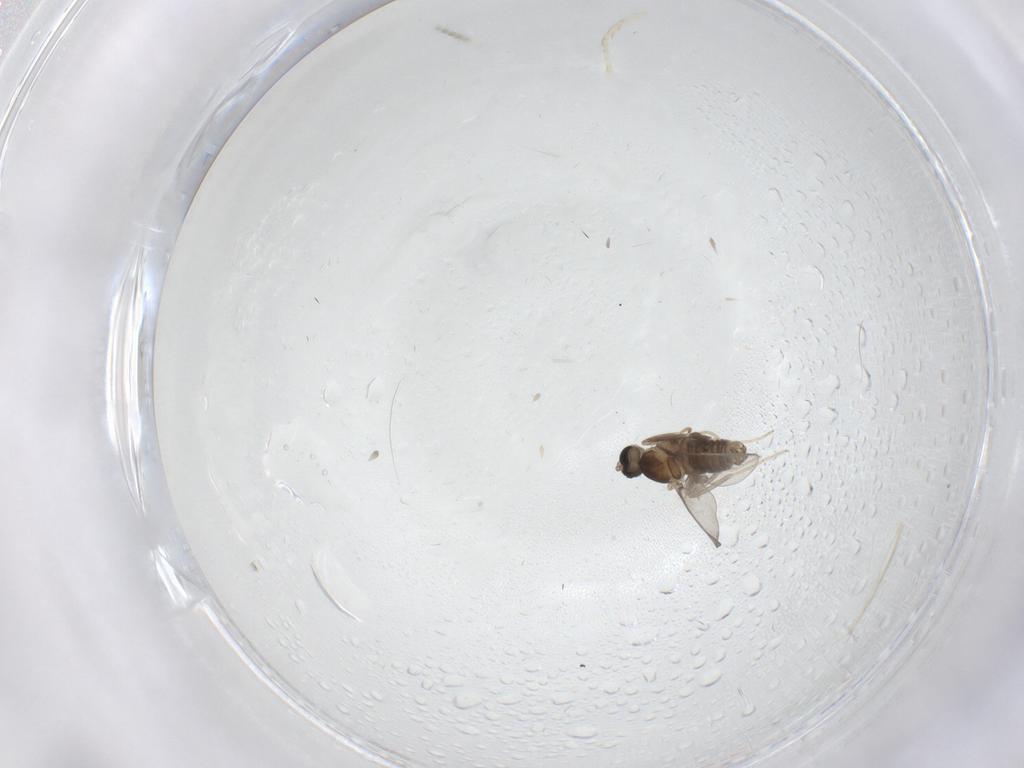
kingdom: Animalia
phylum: Arthropoda
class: Insecta
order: Diptera
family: Cecidomyiidae
